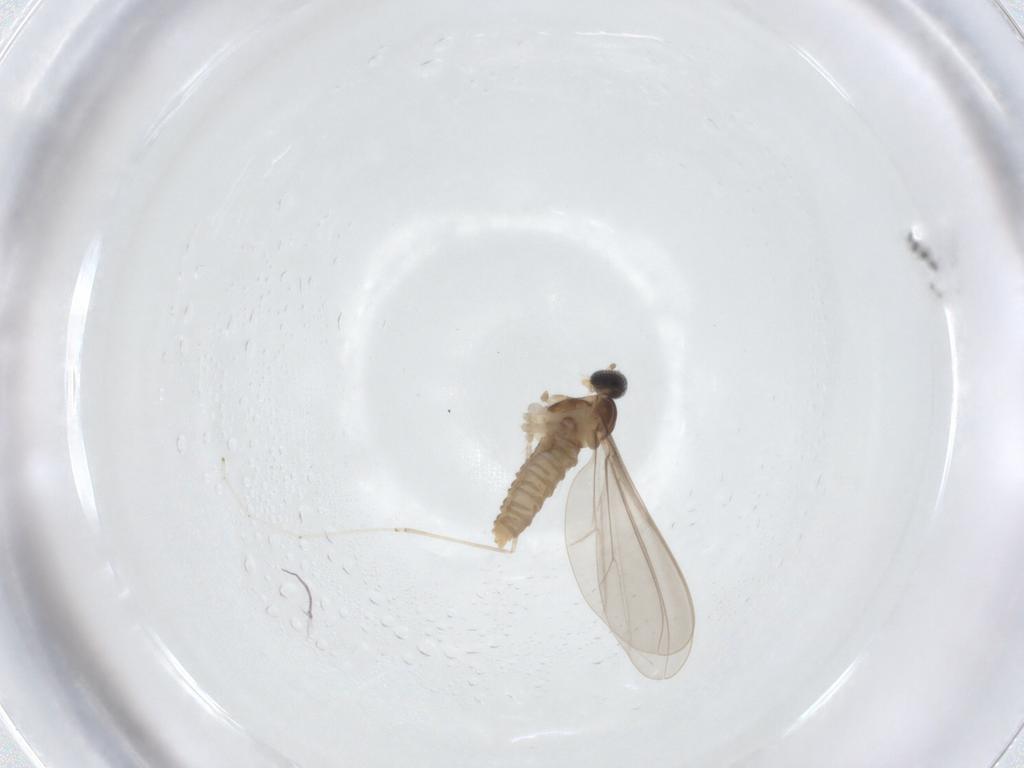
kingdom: Animalia
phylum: Arthropoda
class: Insecta
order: Diptera
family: Limoniidae
